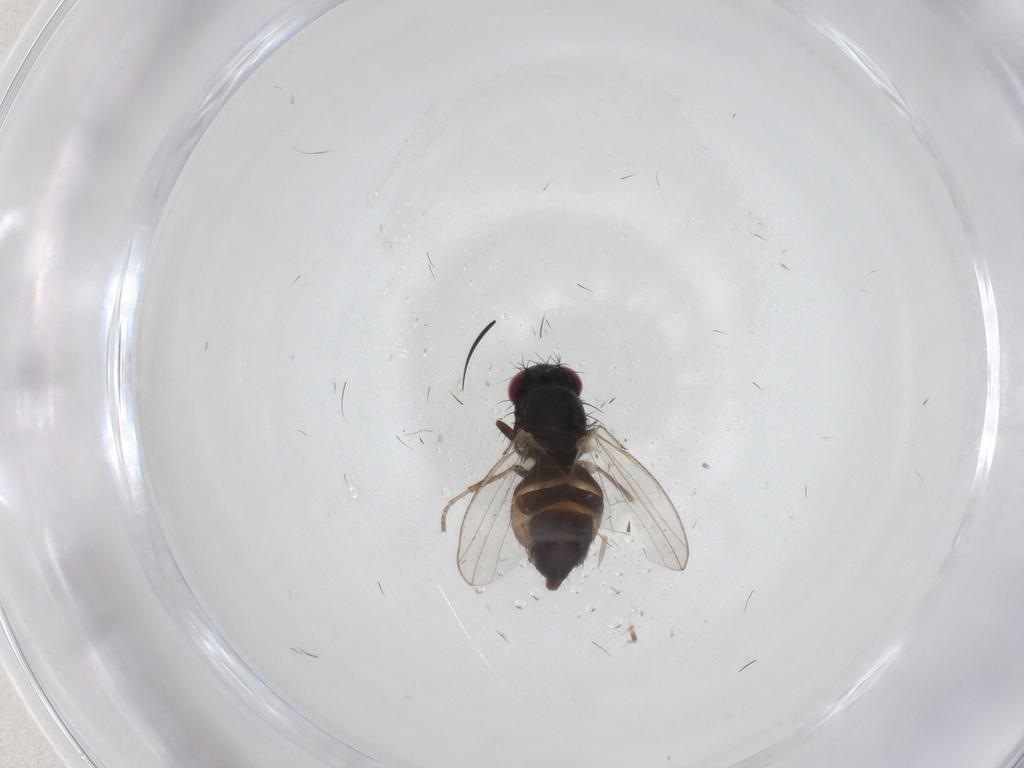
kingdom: Animalia
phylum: Arthropoda
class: Insecta
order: Diptera
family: Carnidae
